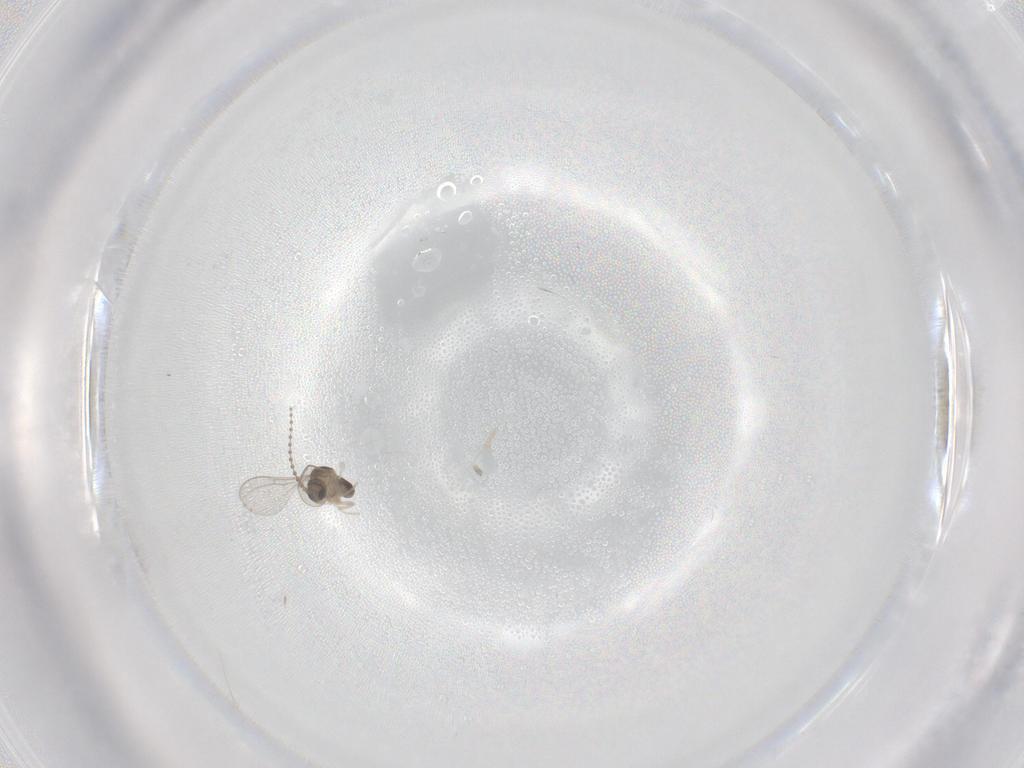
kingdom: Animalia
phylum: Arthropoda
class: Insecta
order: Diptera
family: Cecidomyiidae
